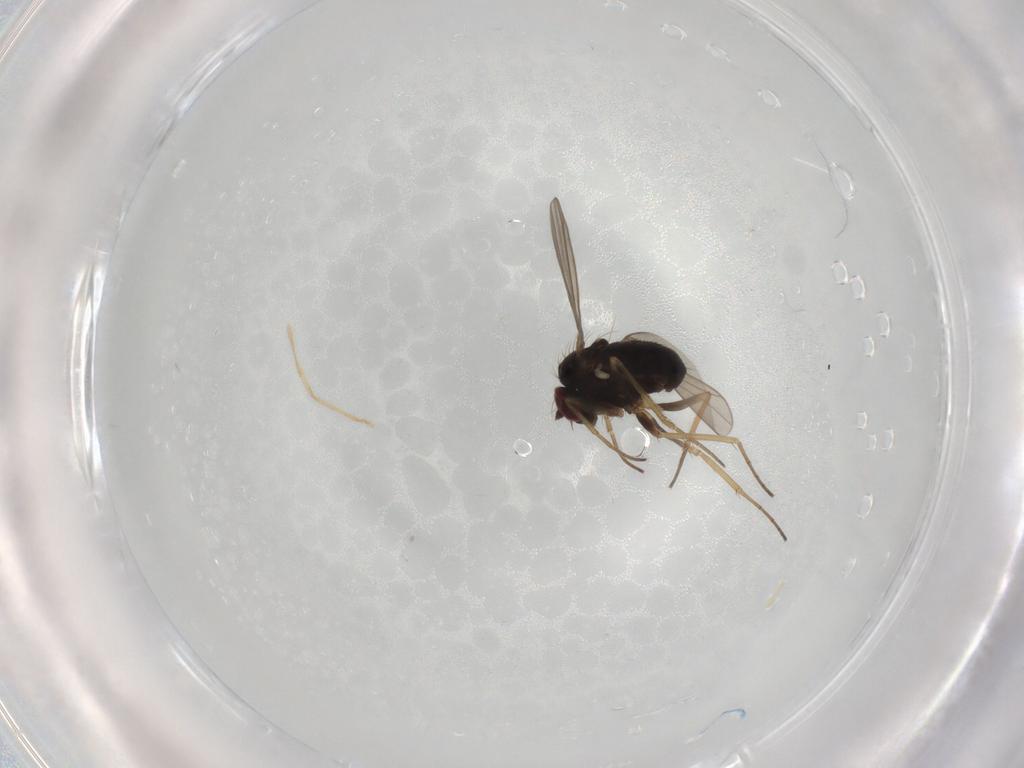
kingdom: Animalia
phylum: Arthropoda
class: Insecta
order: Diptera
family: Dolichopodidae
